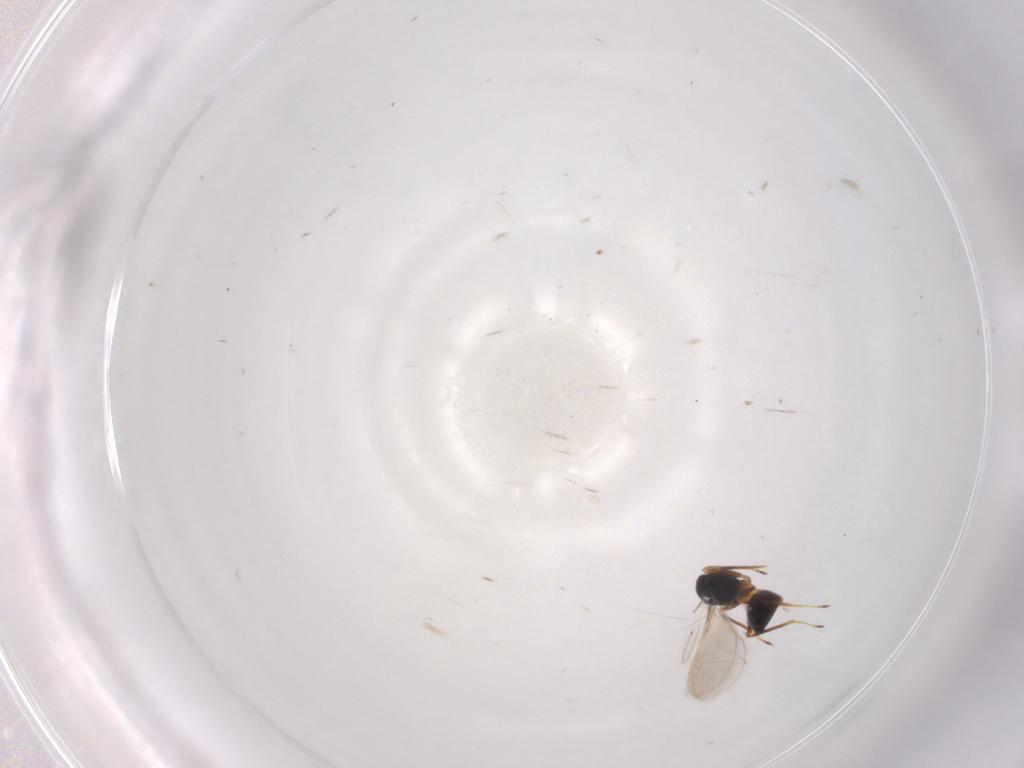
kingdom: Animalia
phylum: Arthropoda
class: Insecta
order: Hymenoptera
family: Mymaridae
